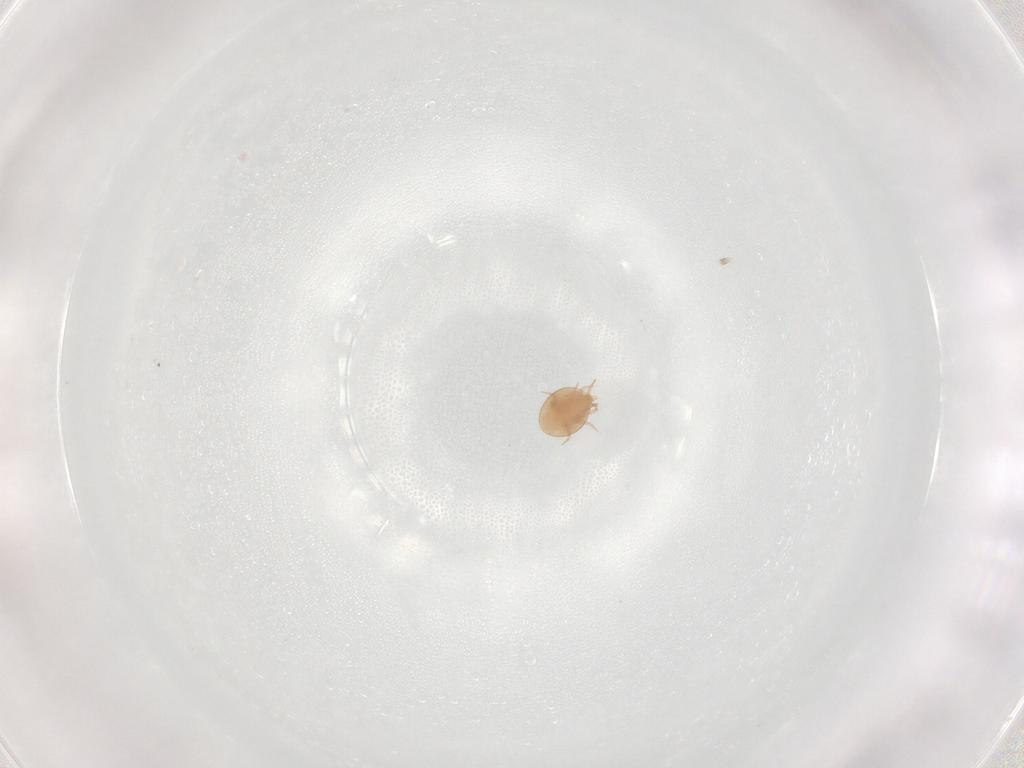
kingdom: Animalia
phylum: Arthropoda
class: Arachnida
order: Mesostigmata
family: Trematuridae
